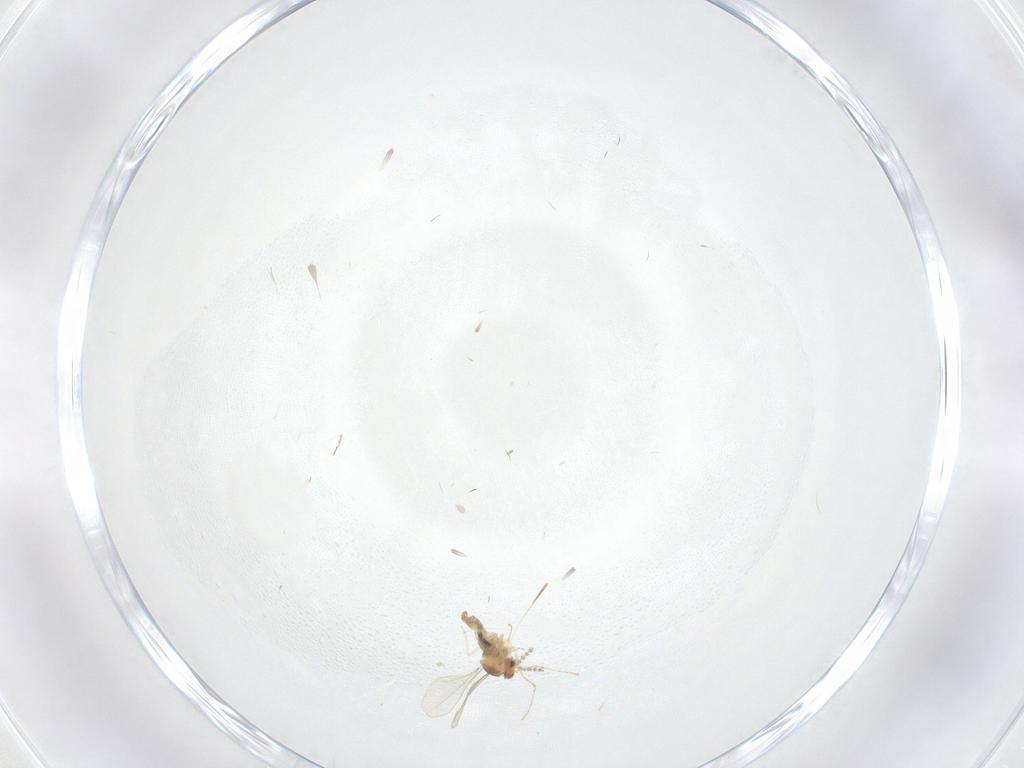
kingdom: Animalia
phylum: Arthropoda
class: Insecta
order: Diptera
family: Cecidomyiidae
